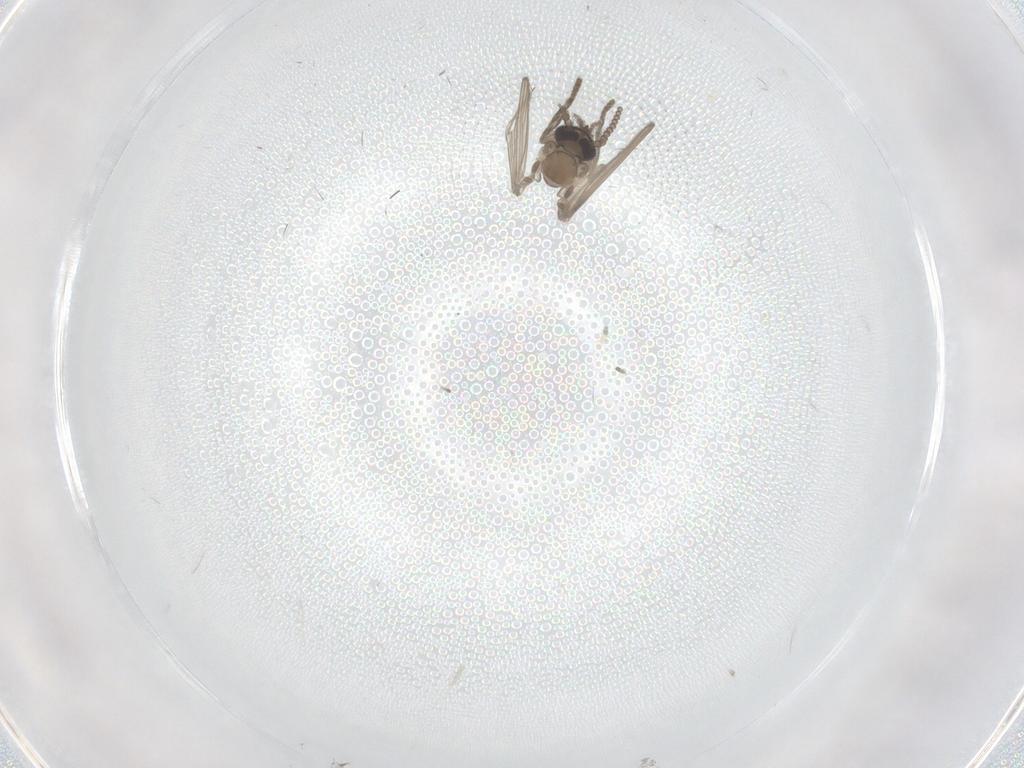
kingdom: Animalia
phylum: Arthropoda
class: Insecta
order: Diptera
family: Psychodidae
